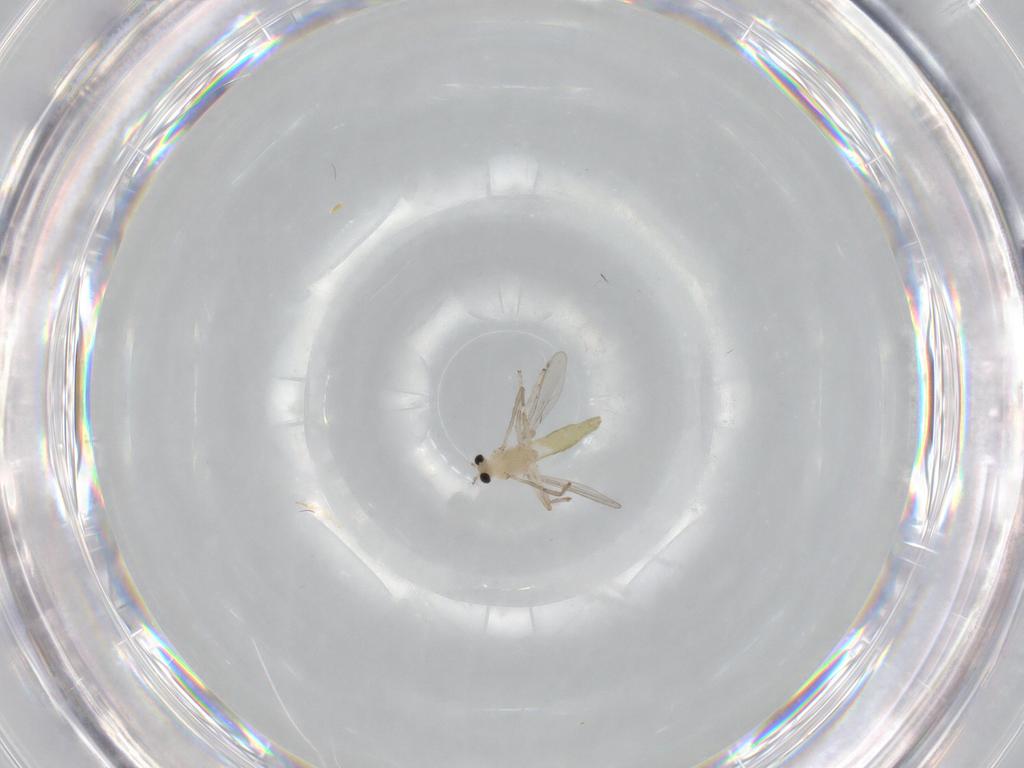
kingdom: Animalia
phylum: Arthropoda
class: Insecta
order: Diptera
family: Chironomidae
